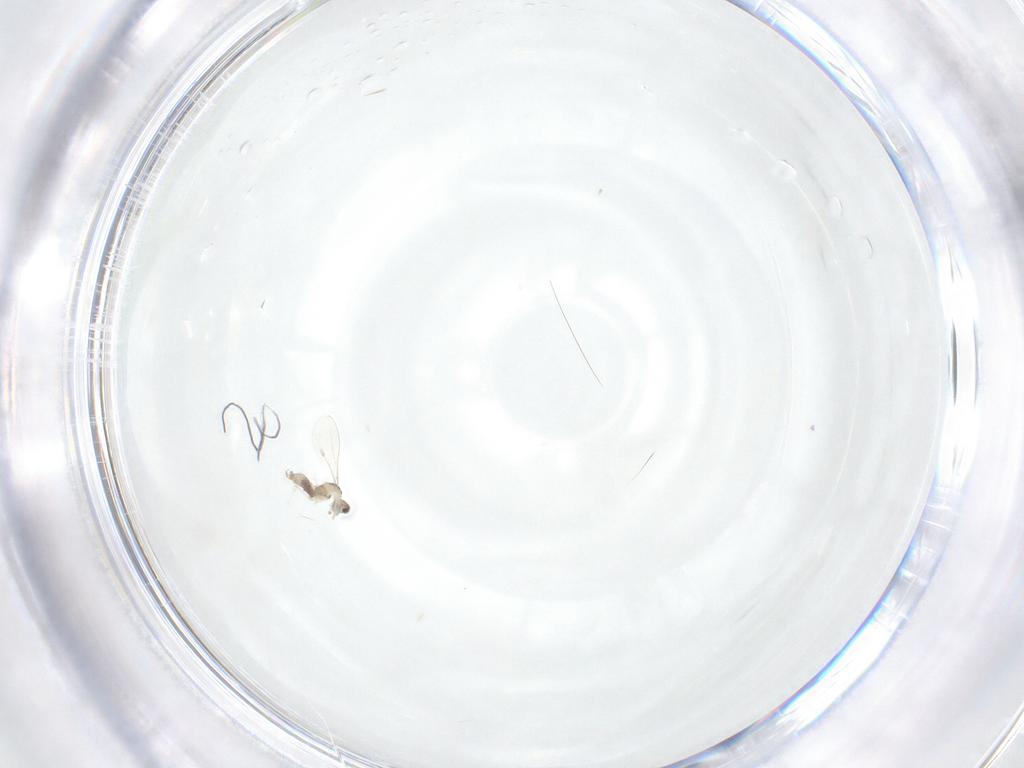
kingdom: Animalia
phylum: Arthropoda
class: Insecta
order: Diptera
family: Cecidomyiidae
